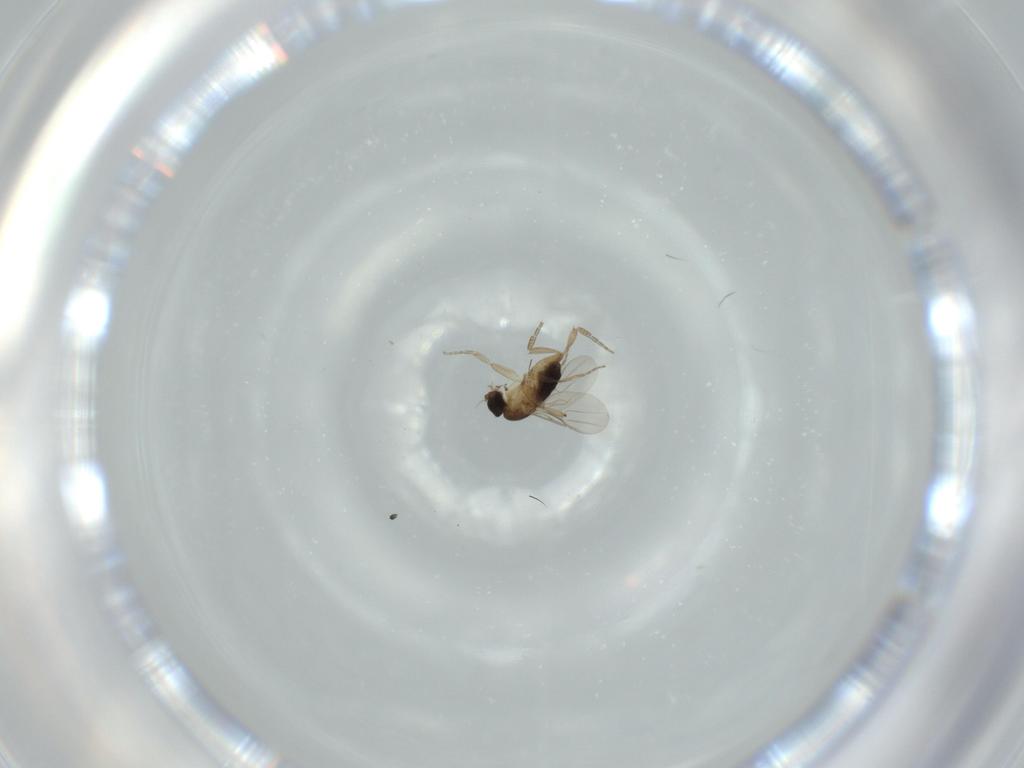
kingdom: Animalia
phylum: Arthropoda
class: Insecta
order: Diptera
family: Phoridae
